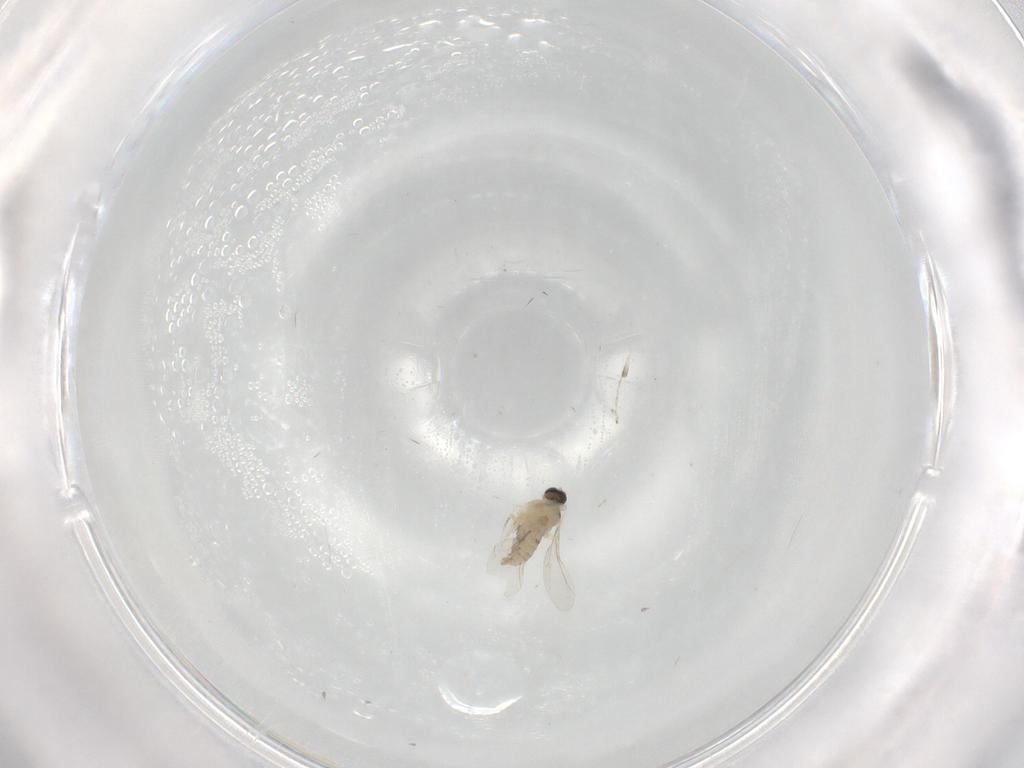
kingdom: Animalia
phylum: Arthropoda
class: Insecta
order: Diptera
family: Cecidomyiidae
